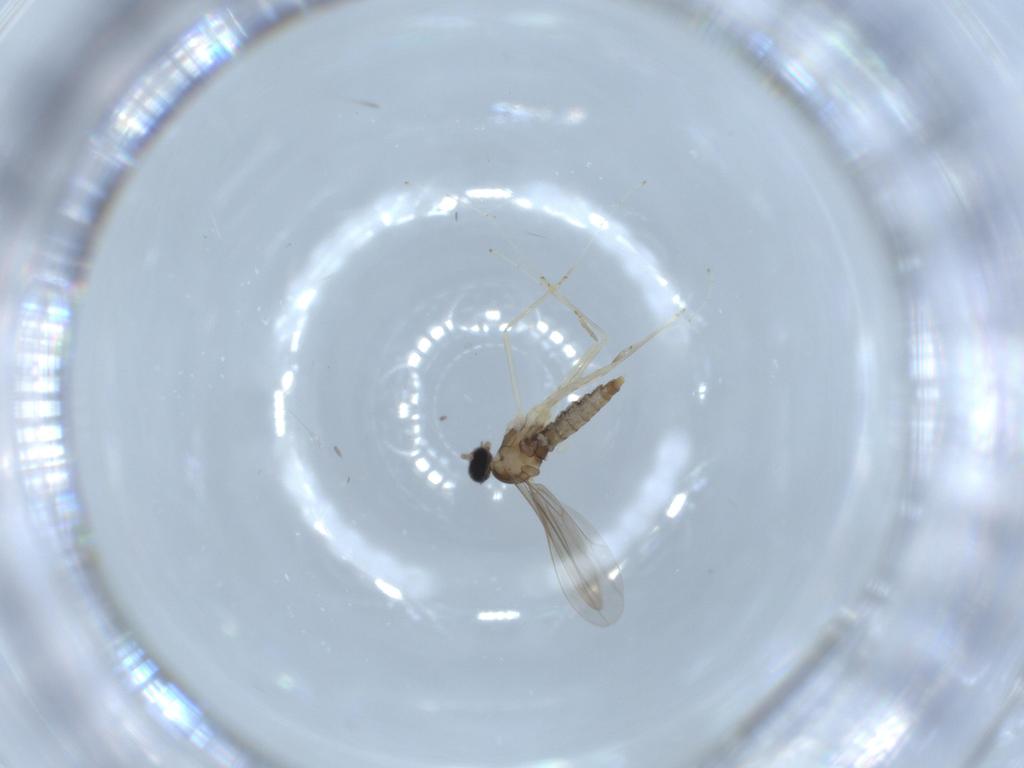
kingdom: Animalia
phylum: Arthropoda
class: Insecta
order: Diptera
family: Cecidomyiidae
